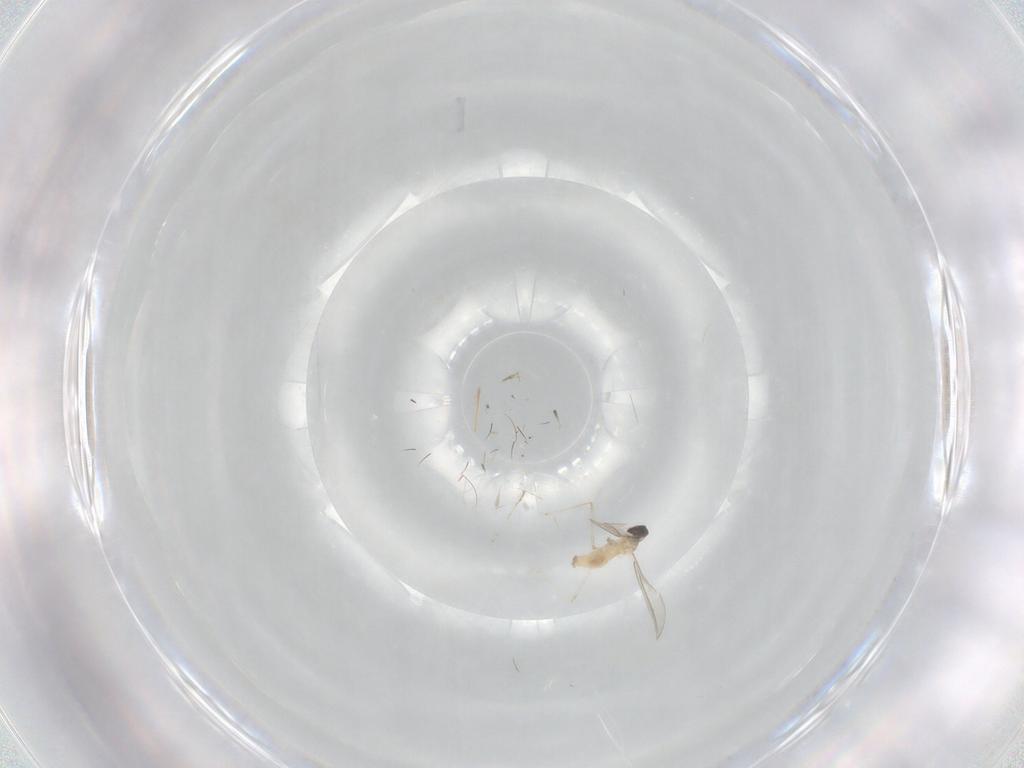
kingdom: Animalia
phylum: Arthropoda
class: Insecta
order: Diptera
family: Cecidomyiidae
